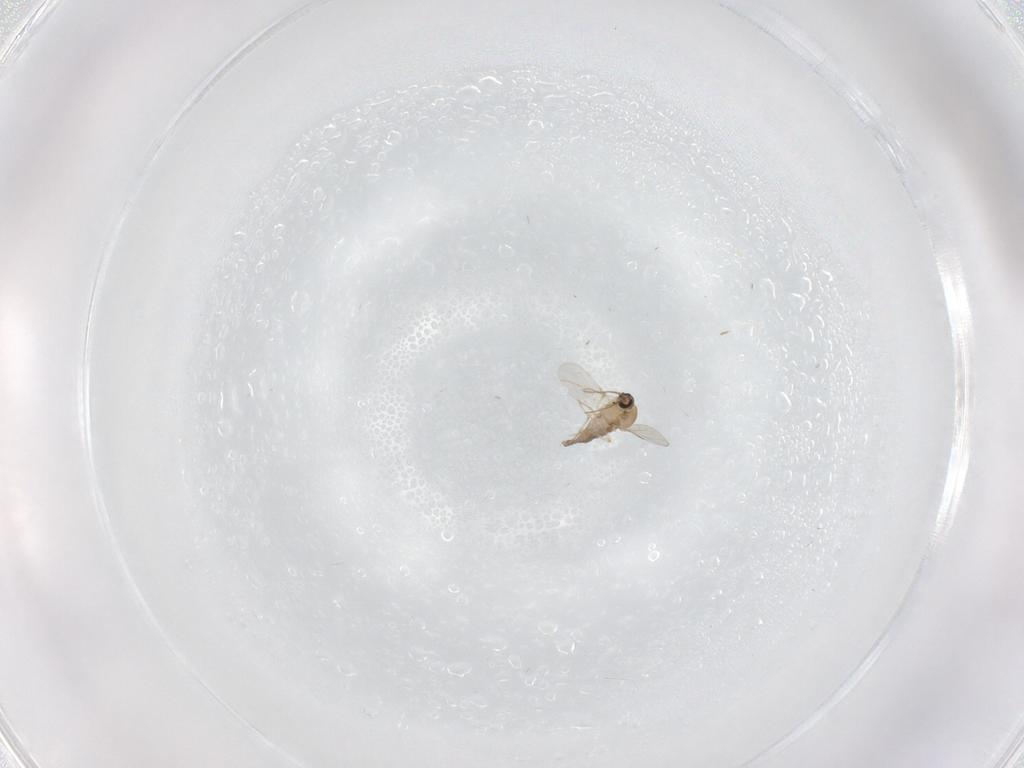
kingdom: Animalia
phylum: Arthropoda
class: Insecta
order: Diptera
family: Ceratopogonidae
